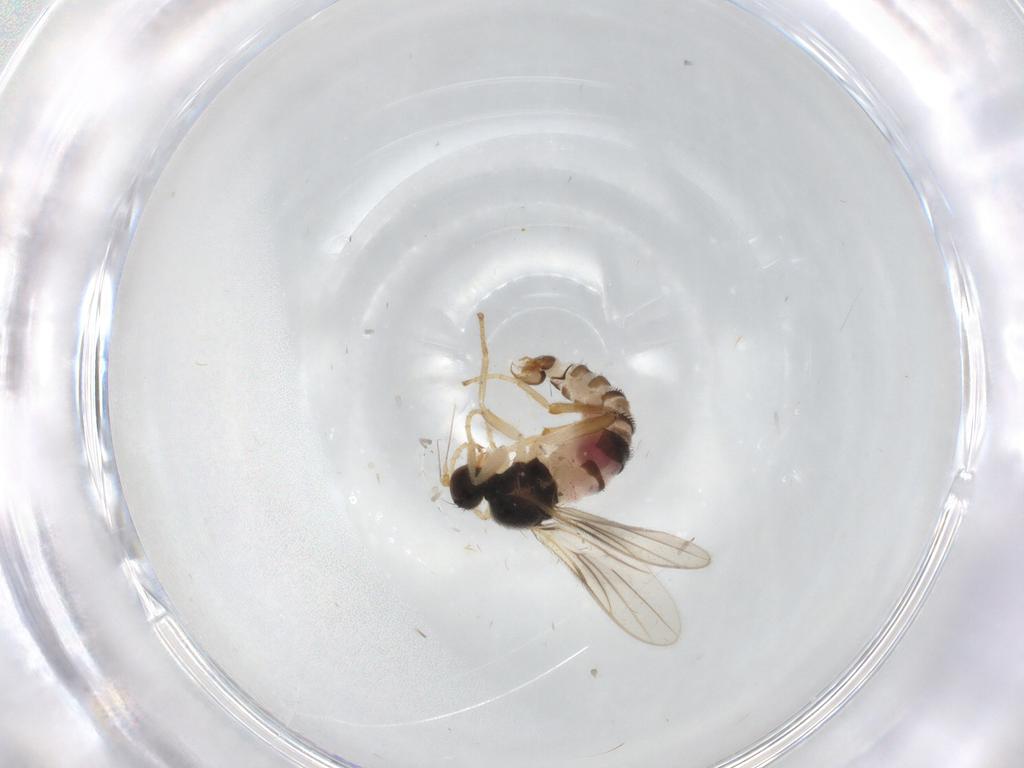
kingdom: Animalia
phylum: Arthropoda
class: Insecta
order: Diptera
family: Hybotidae
